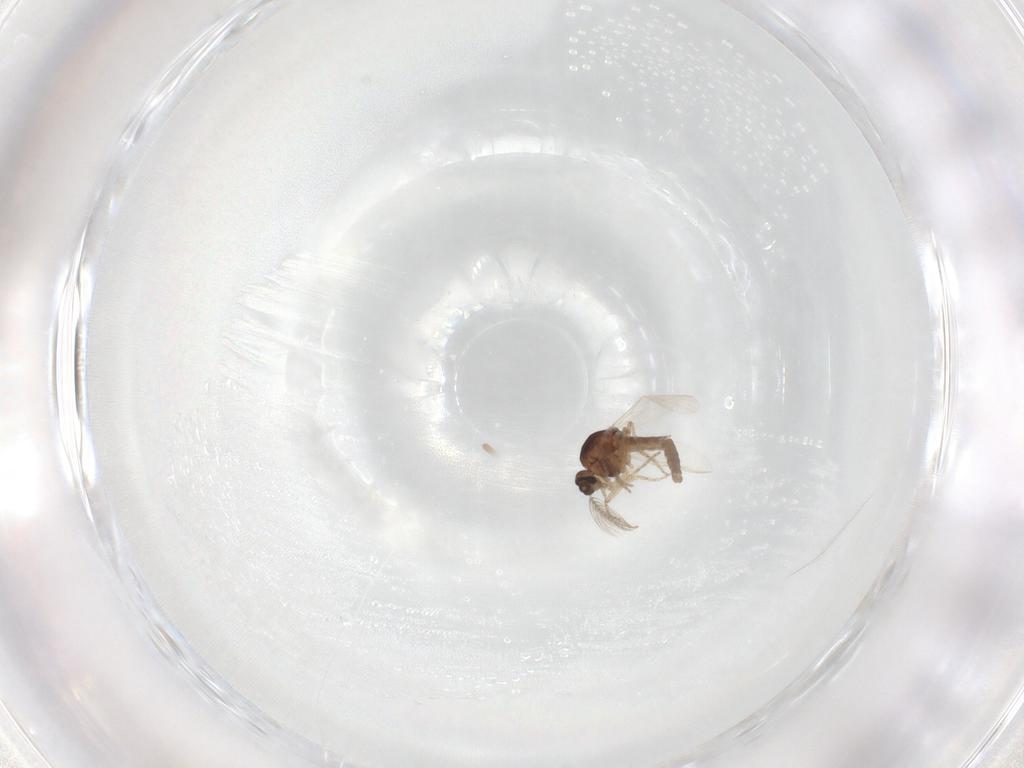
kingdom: Animalia
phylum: Arthropoda
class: Insecta
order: Diptera
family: Ceratopogonidae
